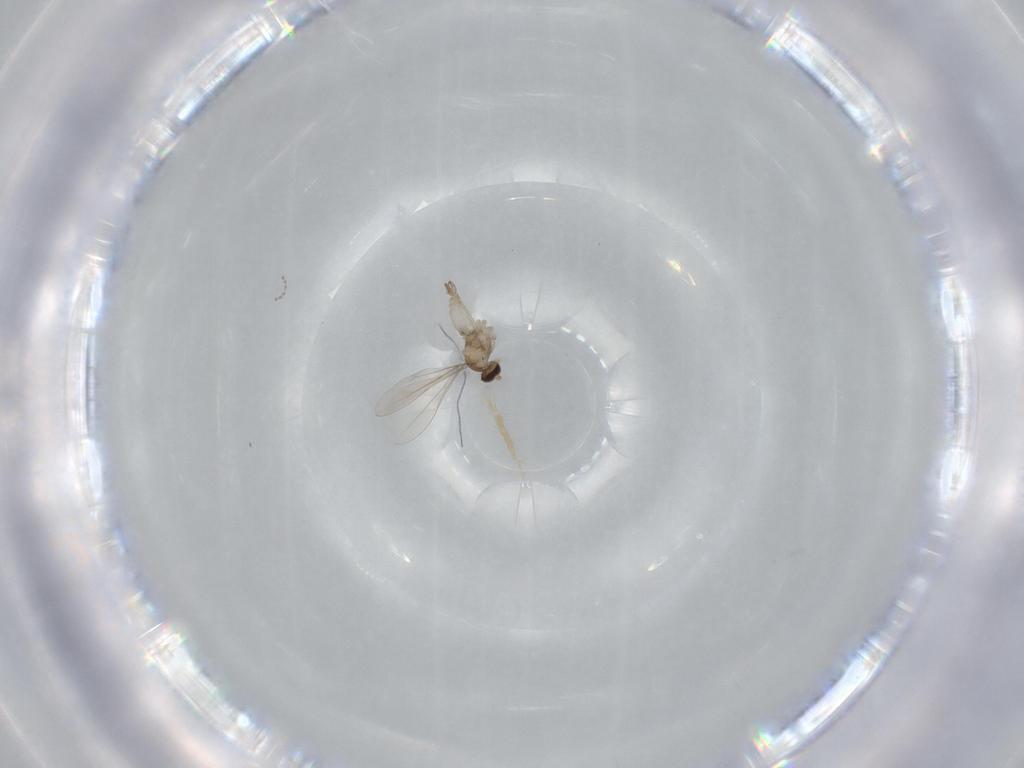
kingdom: Animalia
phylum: Arthropoda
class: Insecta
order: Diptera
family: Cecidomyiidae
